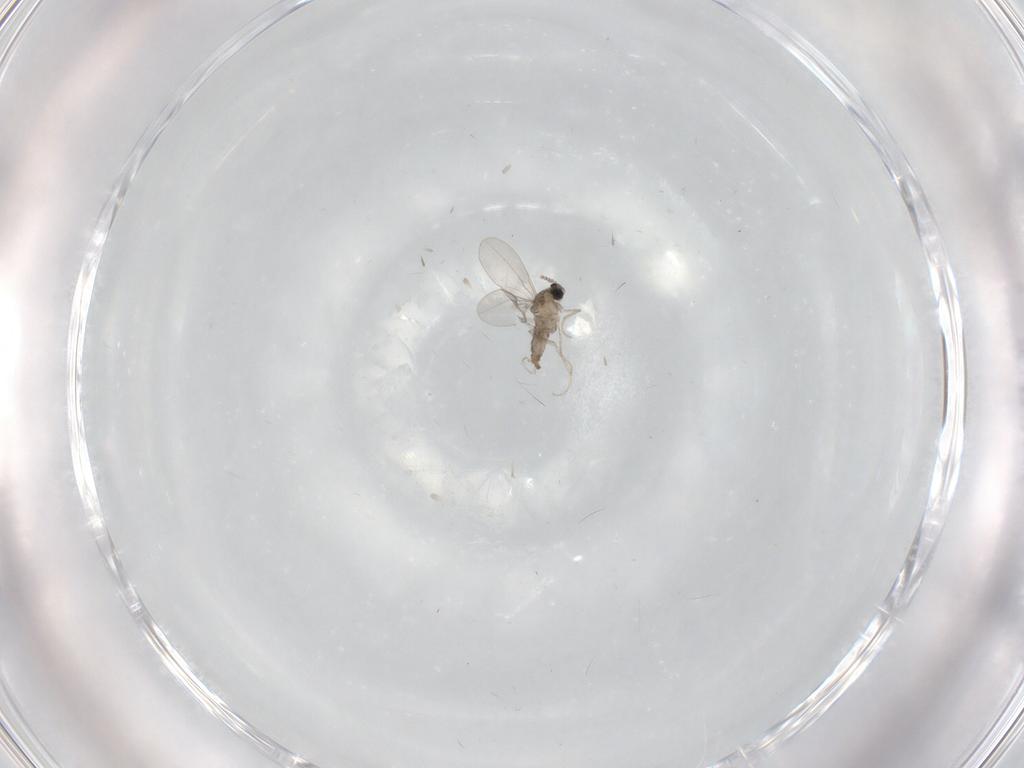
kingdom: Animalia
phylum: Arthropoda
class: Insecta
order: Diptera
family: Cecidomyiidae
